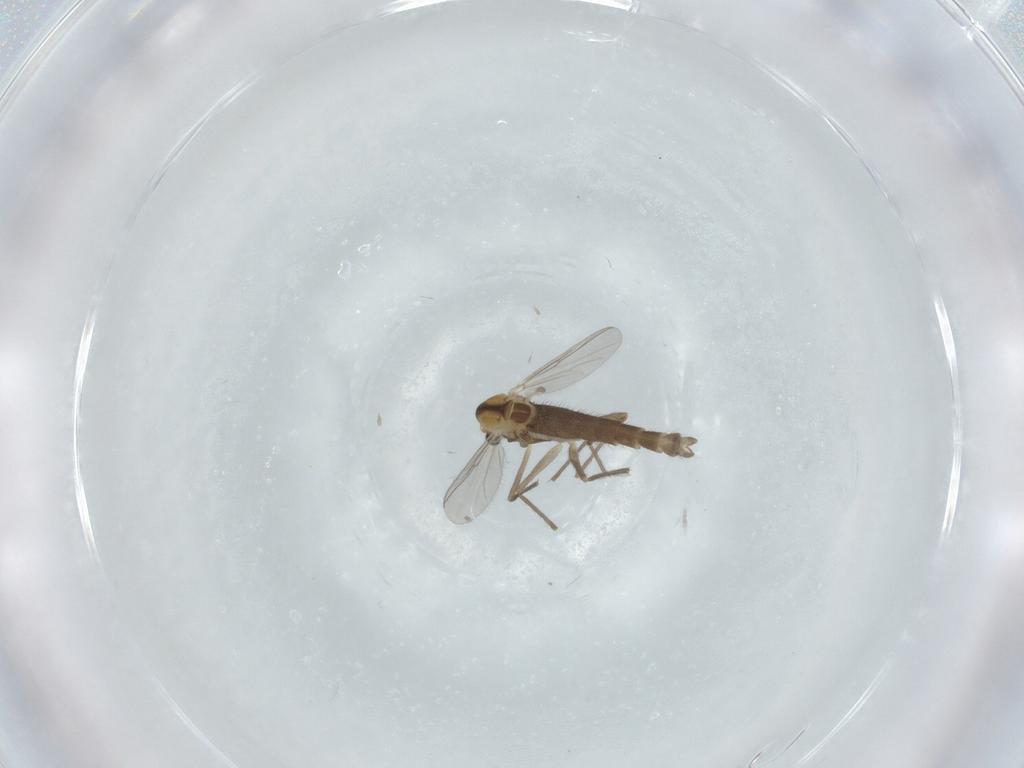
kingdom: Animalia
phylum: Arthropoda
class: Insecta
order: Diptera
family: Chironomidae
